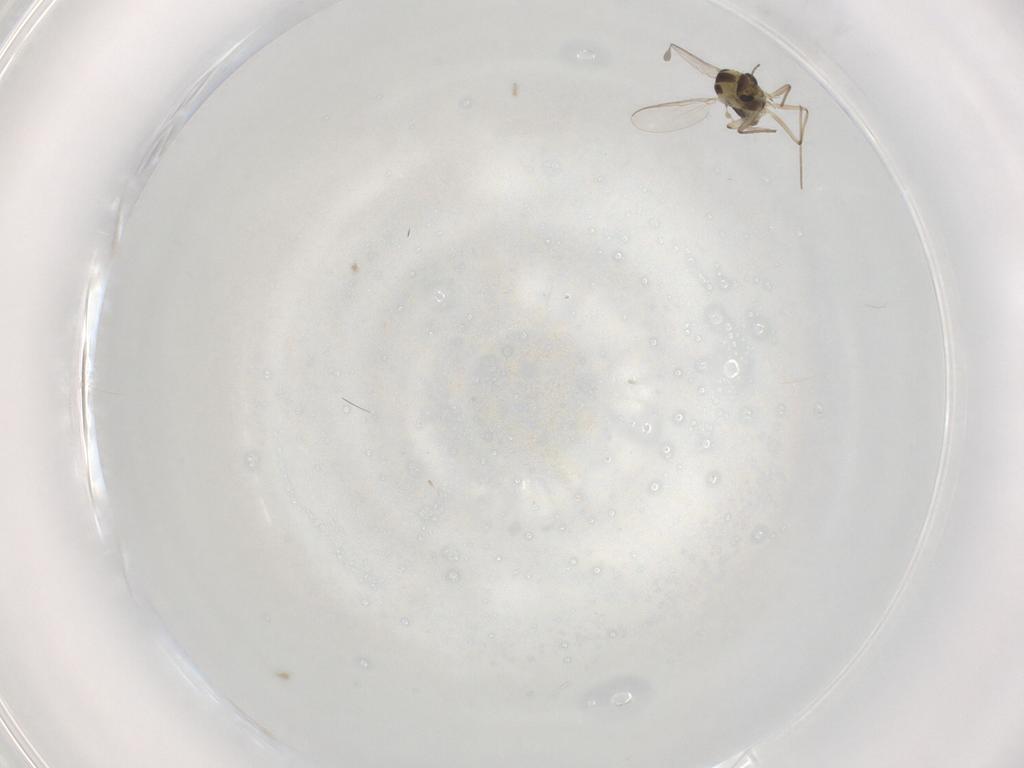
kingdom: Animalia
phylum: Arthropoda
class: Insecta
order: Diptera
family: Chironomidae
